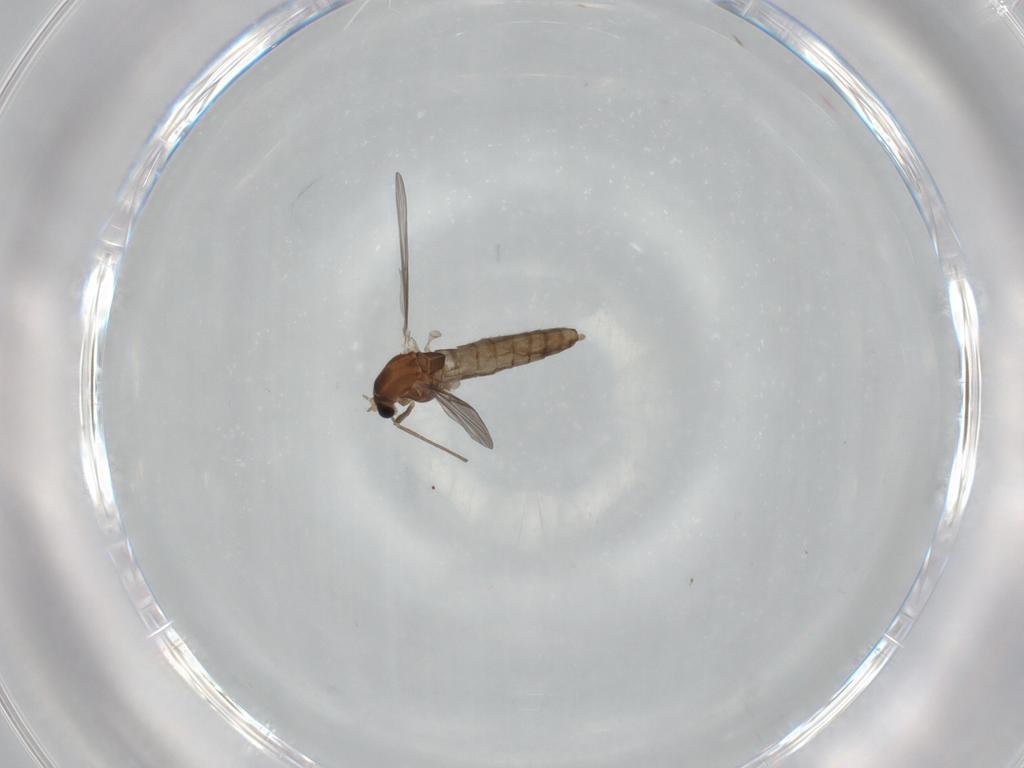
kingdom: Animalia
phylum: Arthropoda
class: Insecta
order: Diptera
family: Chironomidae
